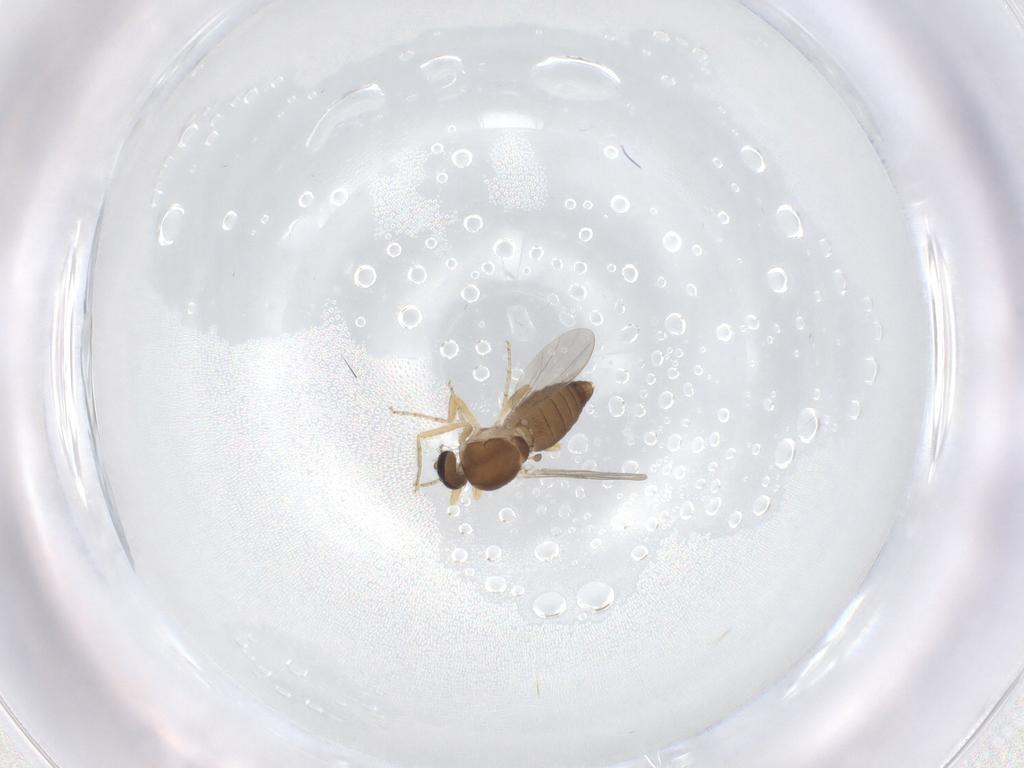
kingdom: Animalia
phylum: Arthropoda
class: Insecta
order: Diptera
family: Ceratopogonidae
